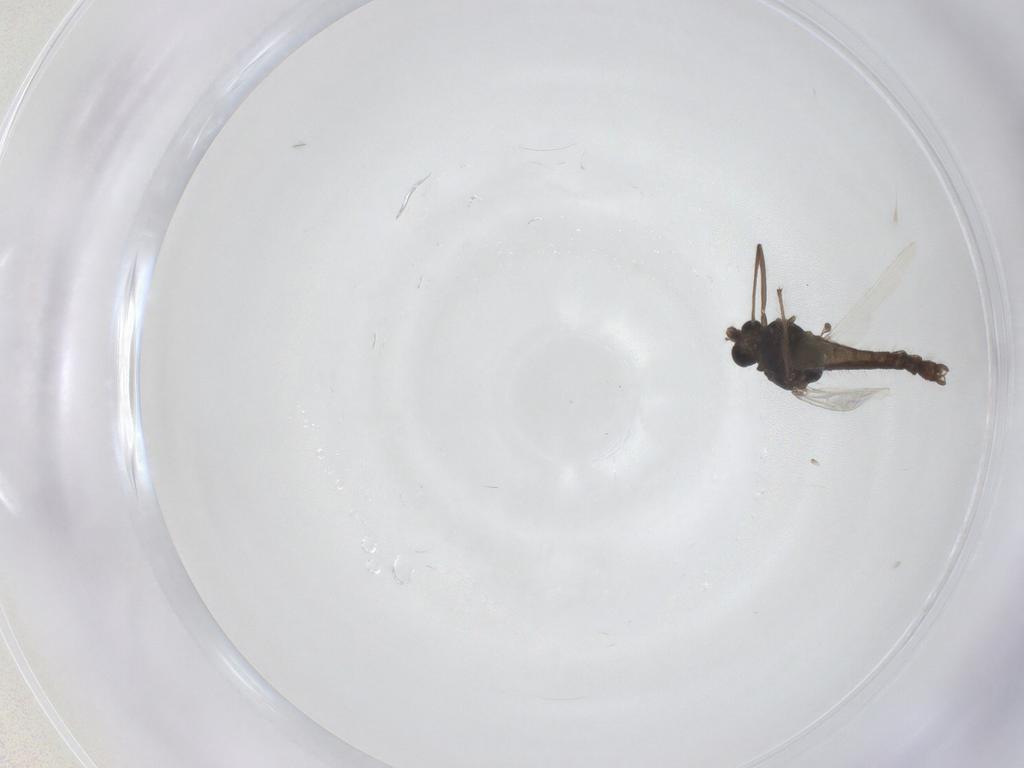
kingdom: Animalia
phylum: Arthropoda
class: Insecta
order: Diptera
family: Chironomidae
